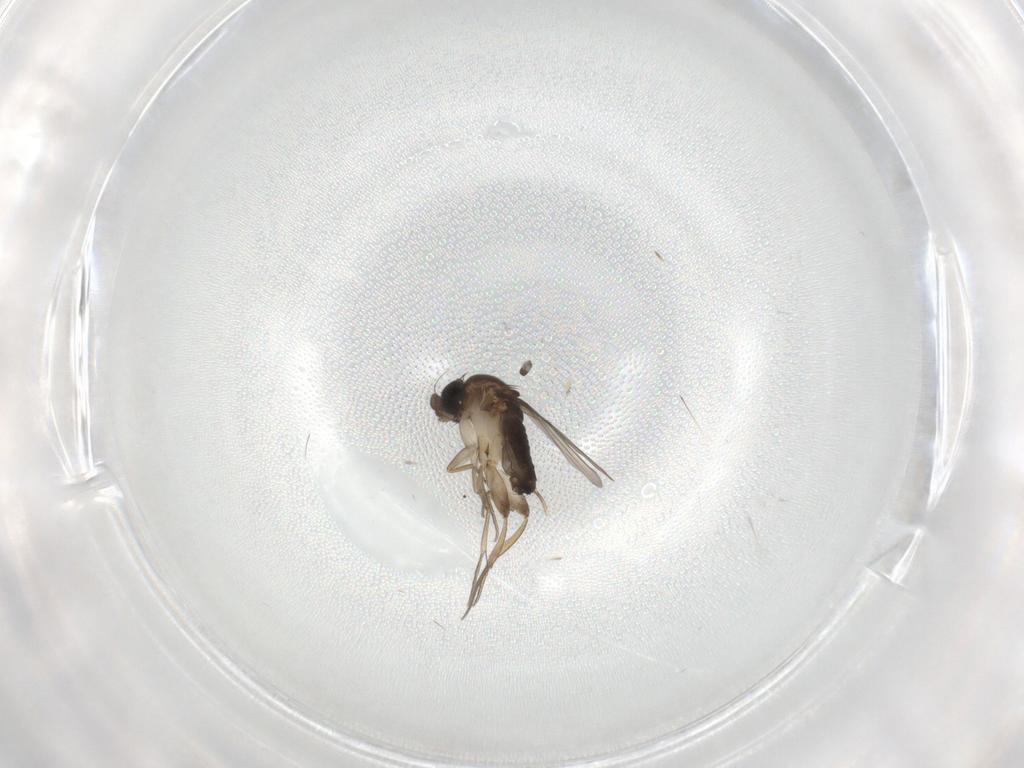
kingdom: Animalia
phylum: Arthropoda
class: Insecta
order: Diptera
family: Phoridae
